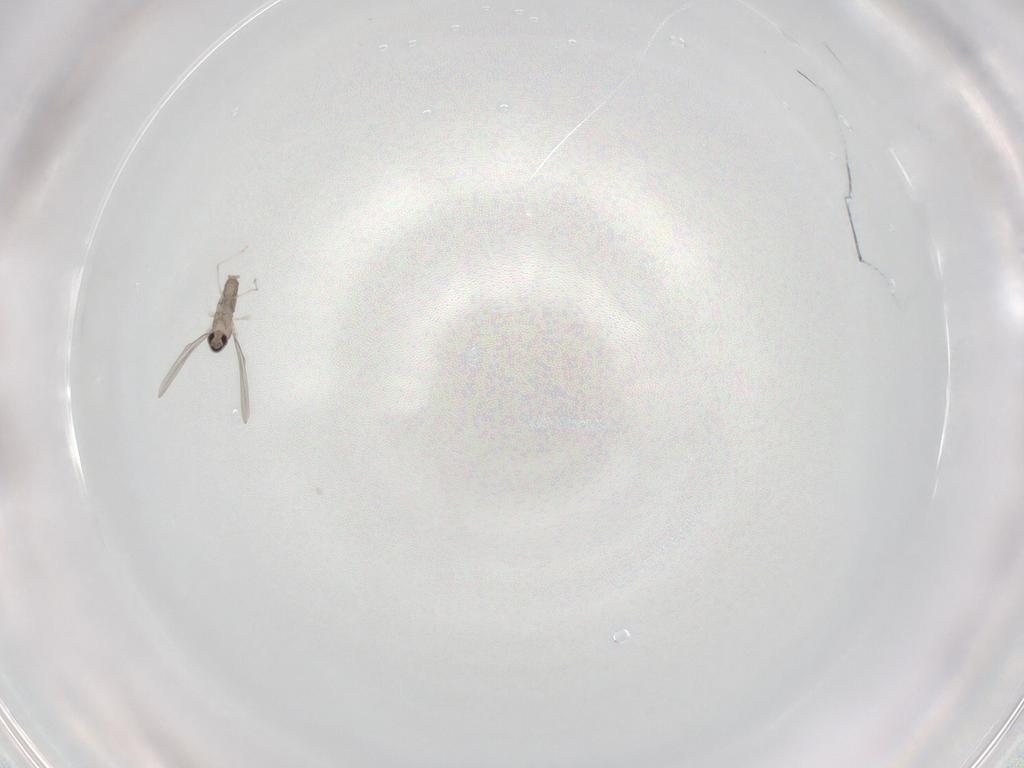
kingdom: Animalia
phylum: Arthropoda
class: Insecta
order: Diptera
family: Cecidomyiidae
